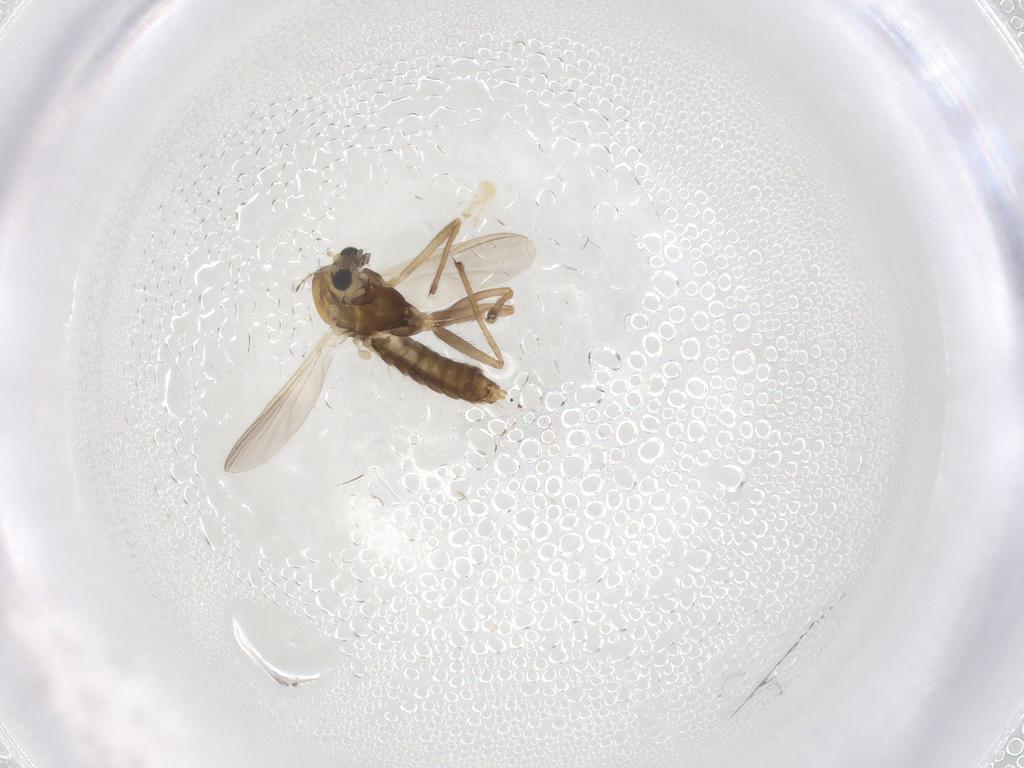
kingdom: Animalia
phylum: Arthropoda
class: Insecta
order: Diptera
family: Chironomidae
